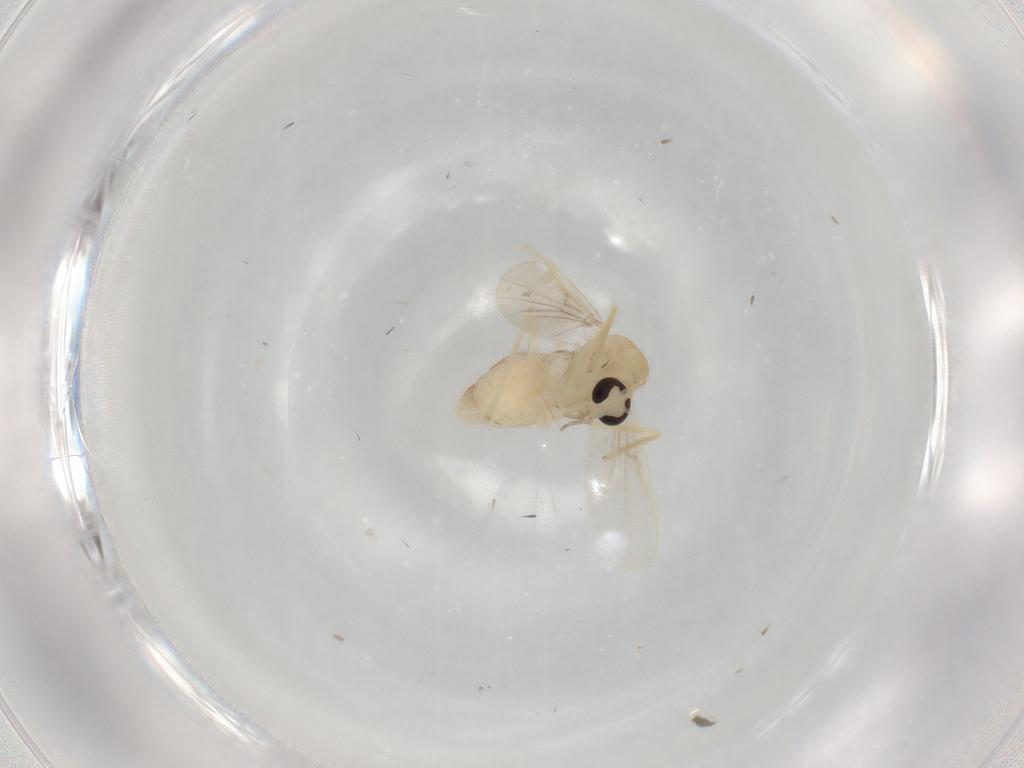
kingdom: Animalia
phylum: Arthropoda
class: Insecta
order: Diptera
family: Chironomidae
